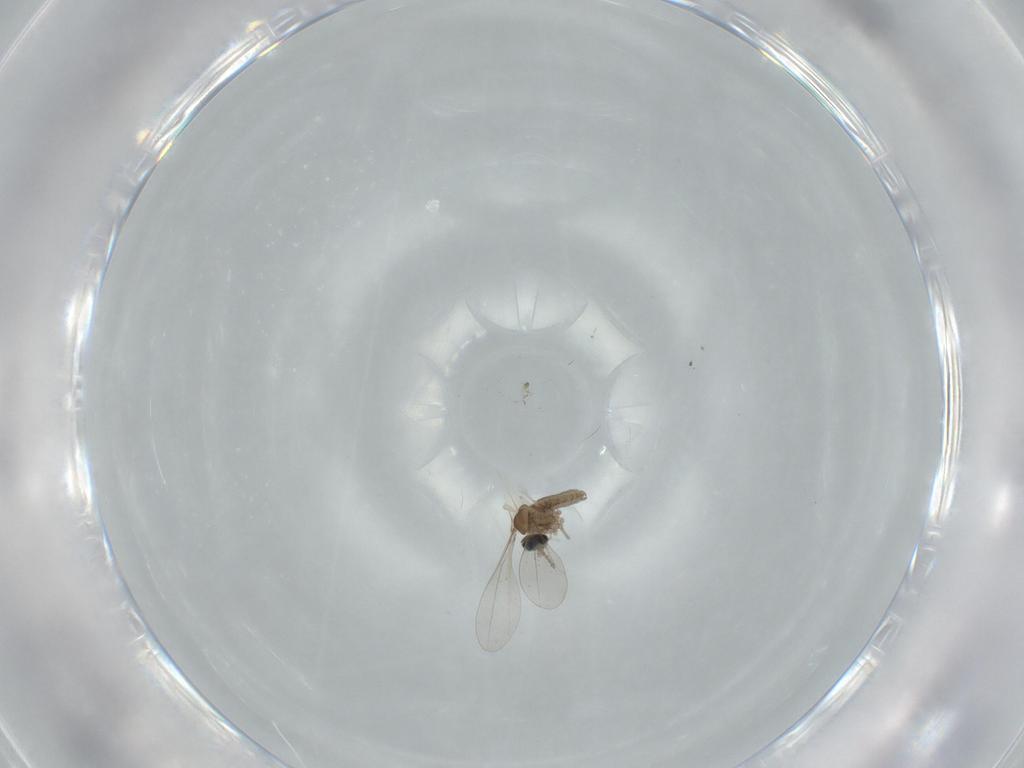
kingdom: Animalia
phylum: Arthropoda
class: Insecta
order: Diptera
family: Cecidomyiidae
